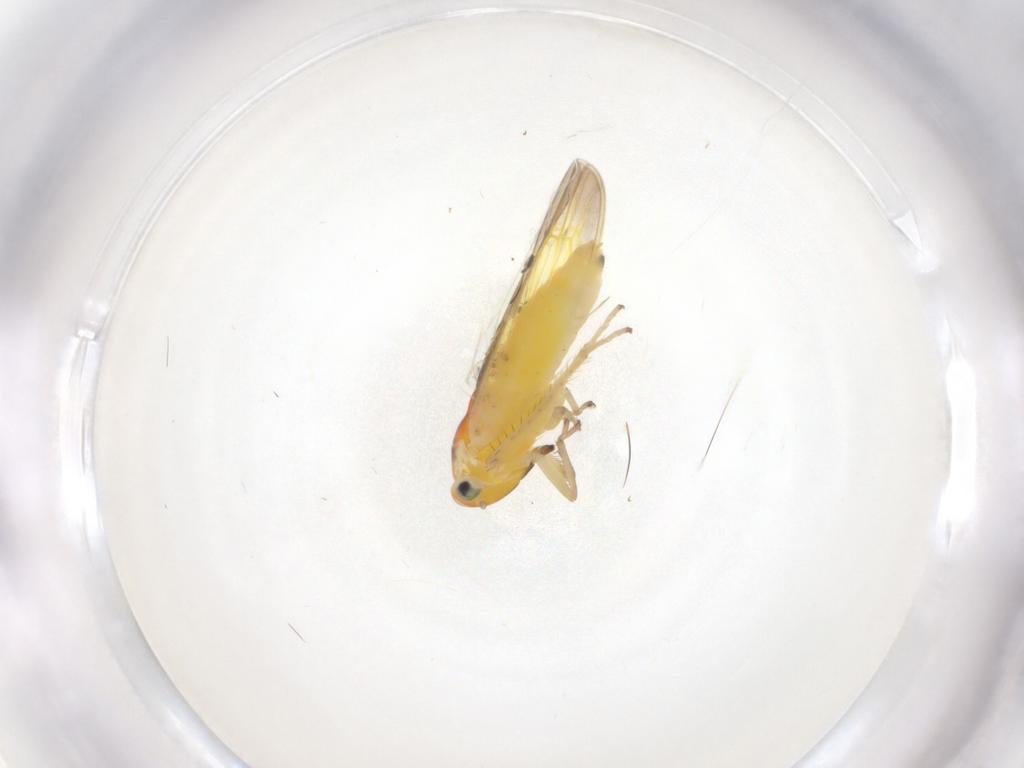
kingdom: Animalia
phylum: Arthropoda
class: Insecta
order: Hemiptera
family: Cicadellidae
